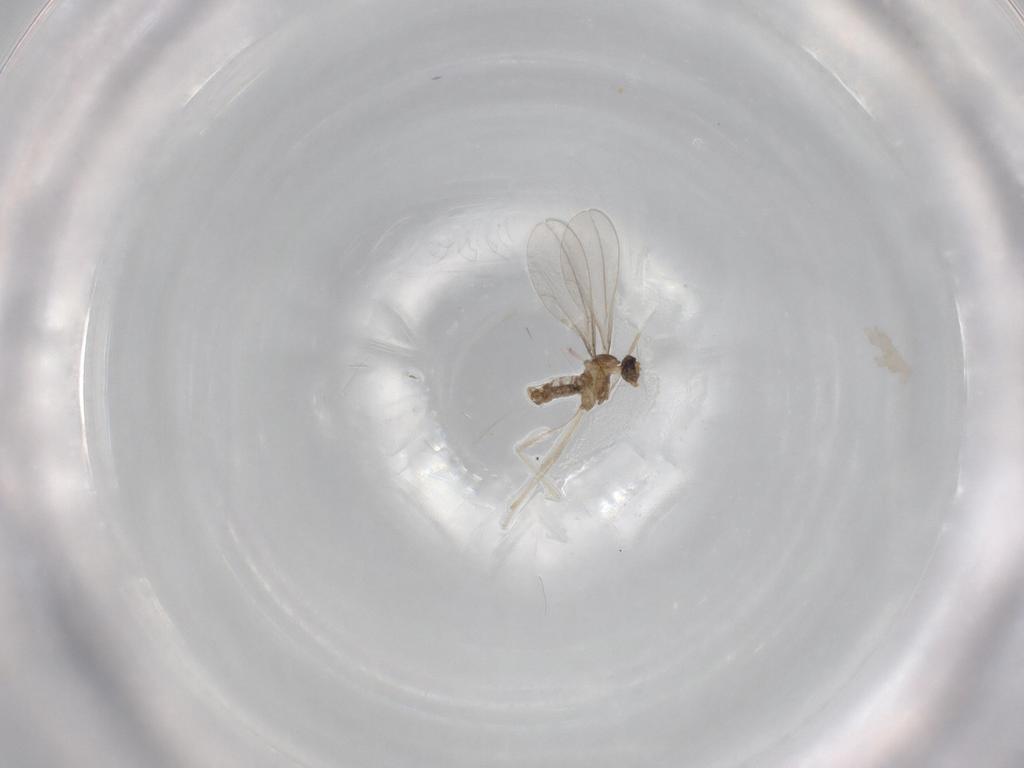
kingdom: Animalia
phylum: Arthropoda
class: Insecta
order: Diptera
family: Cecidomyiidae
